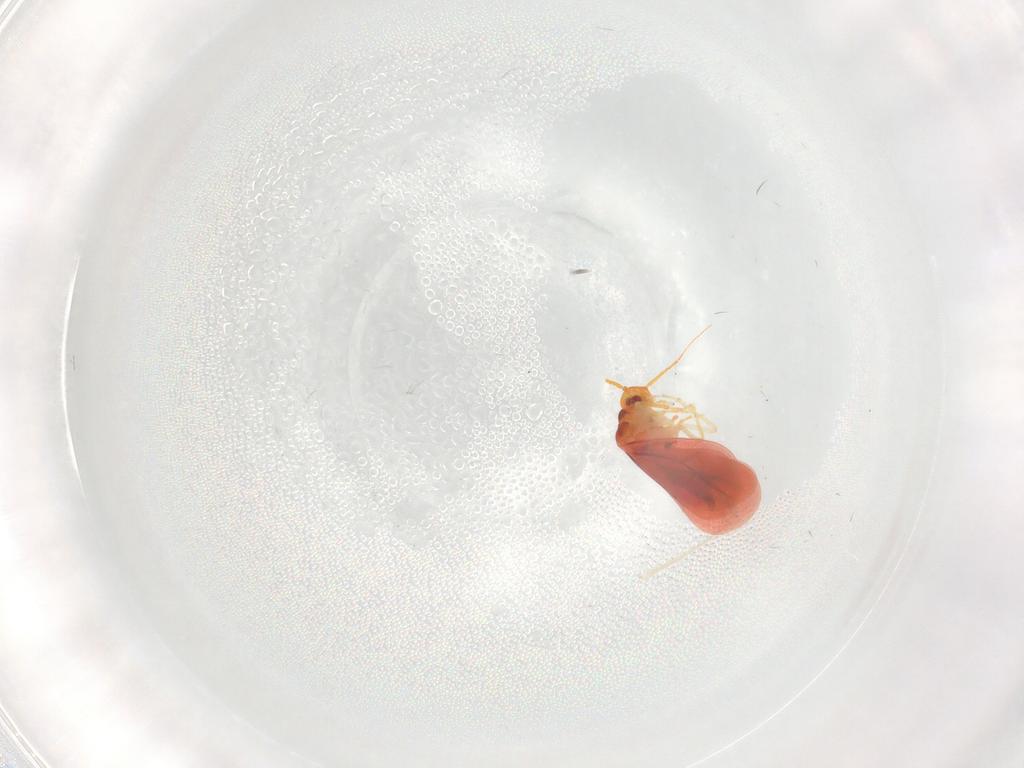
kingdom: Animalia
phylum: Arthropoda
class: Insecta
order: Hemiptera
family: Aleyrodidae
